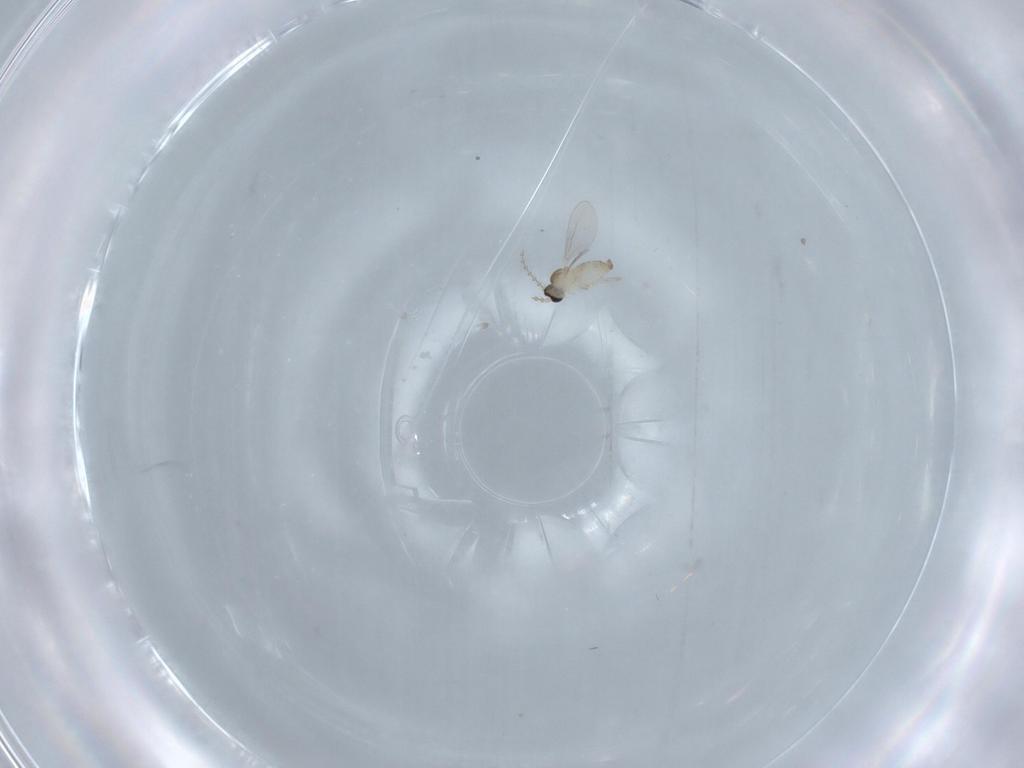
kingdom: Animalia
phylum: Arthropoda
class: Insecta
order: Diptera
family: Cecidomyiidae
